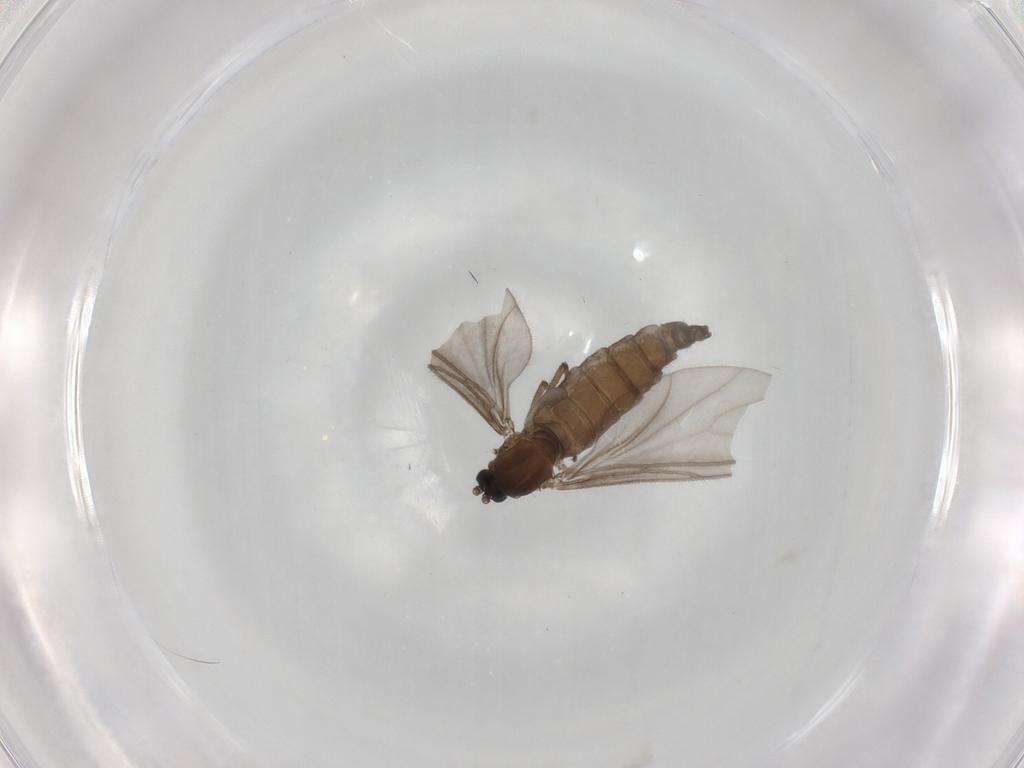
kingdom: Animalia
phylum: Arthropoda
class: Insecta
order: Diptera
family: Sciaridae
